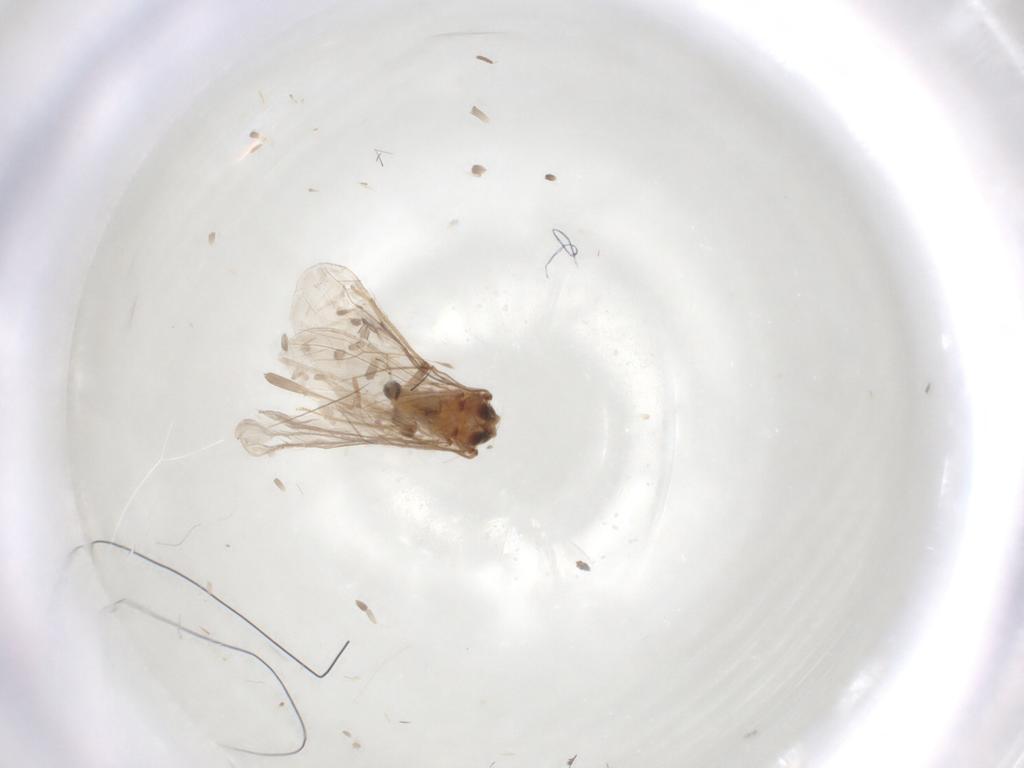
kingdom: Animalia
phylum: Arthropoda
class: Insecta
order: Neuroptera
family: Coniopterygidae
